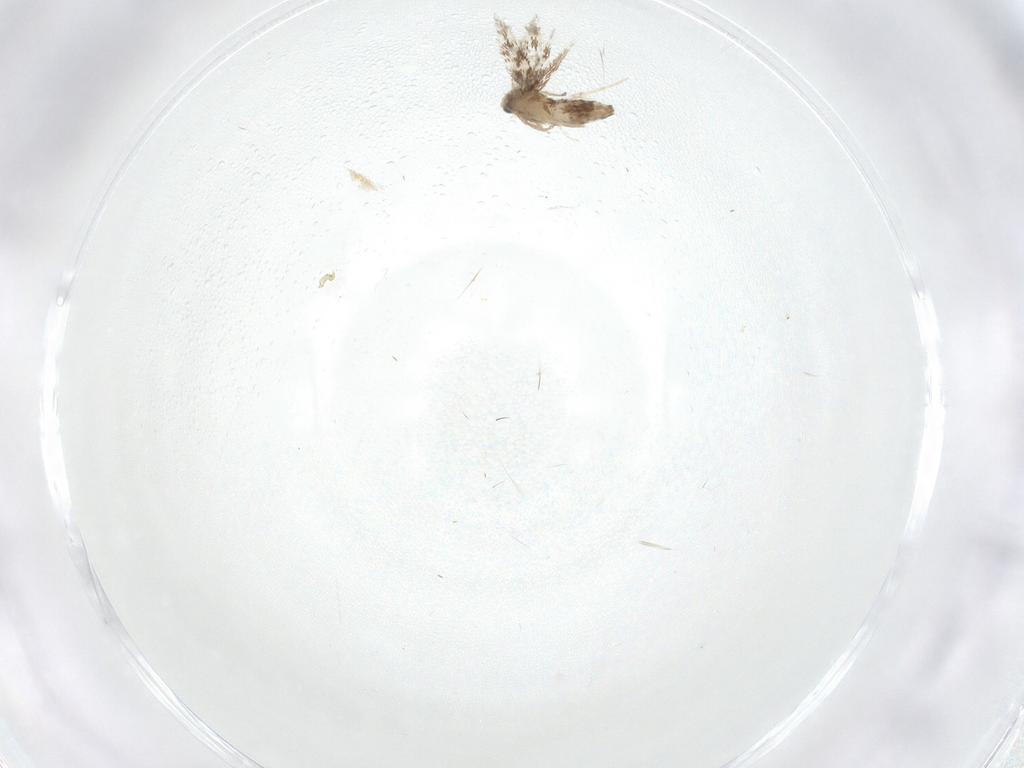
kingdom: Animalia
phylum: Arthropoda
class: Insecta
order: Lepidoptera
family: Nepticulidae
